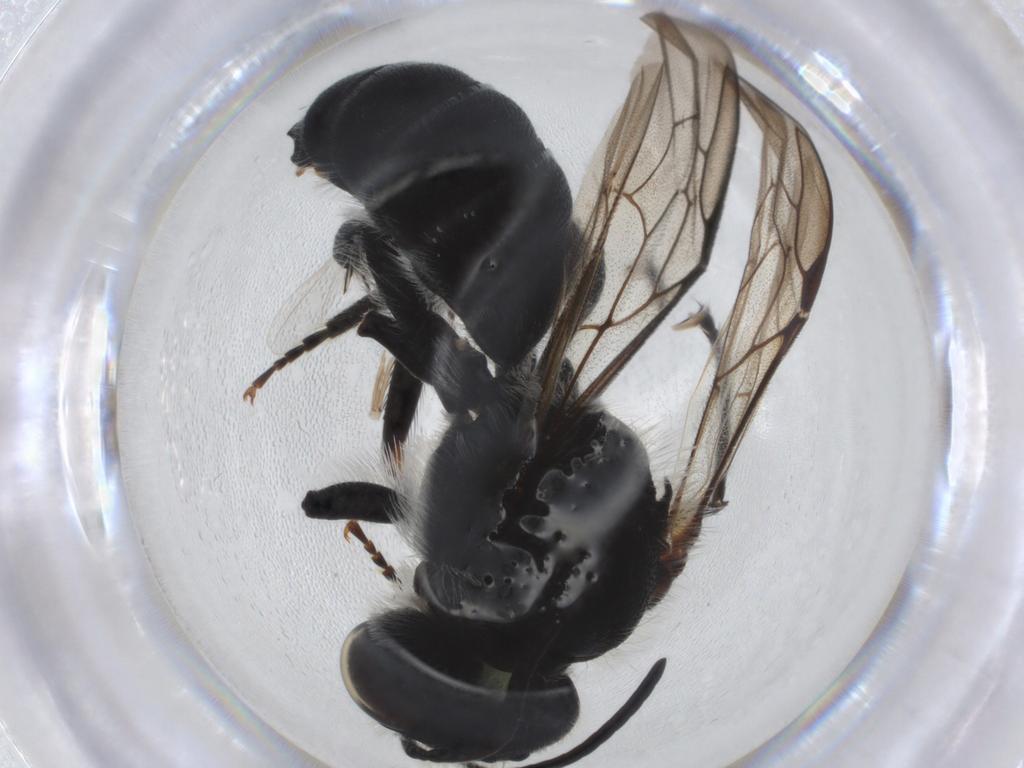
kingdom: Animalia
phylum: Arthropoda
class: Insecta
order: Hymenoptera
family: Megachilidae
